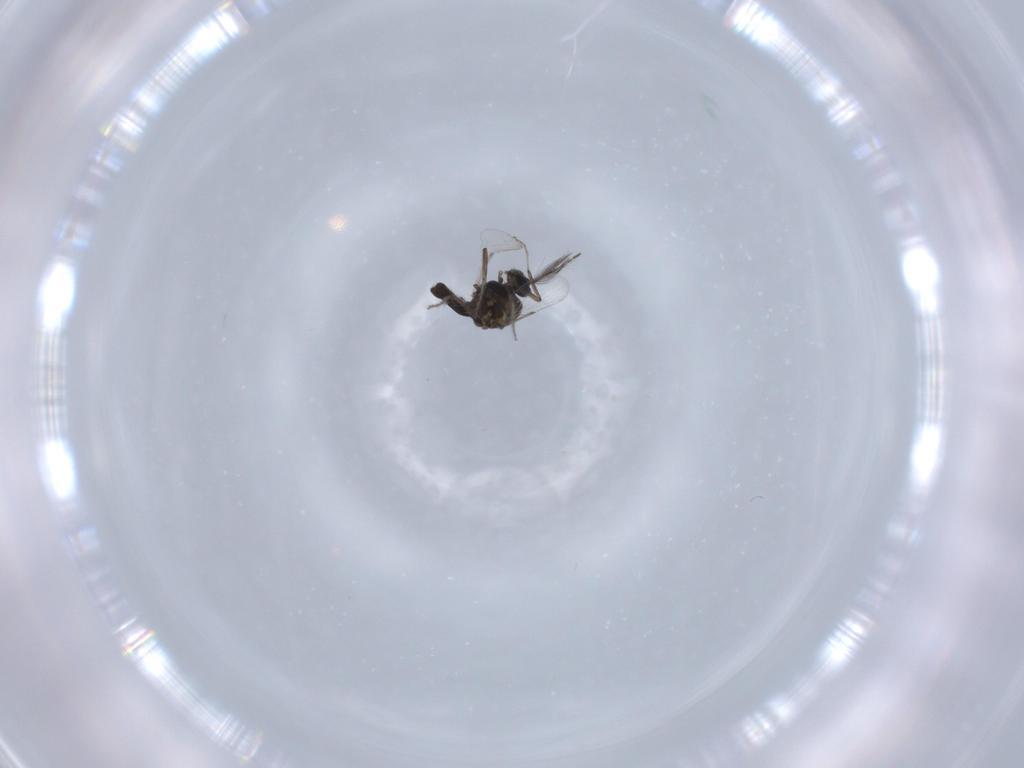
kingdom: Animalia
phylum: Arthropoda
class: Insecta
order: Diptera
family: Ceratopogonidae
